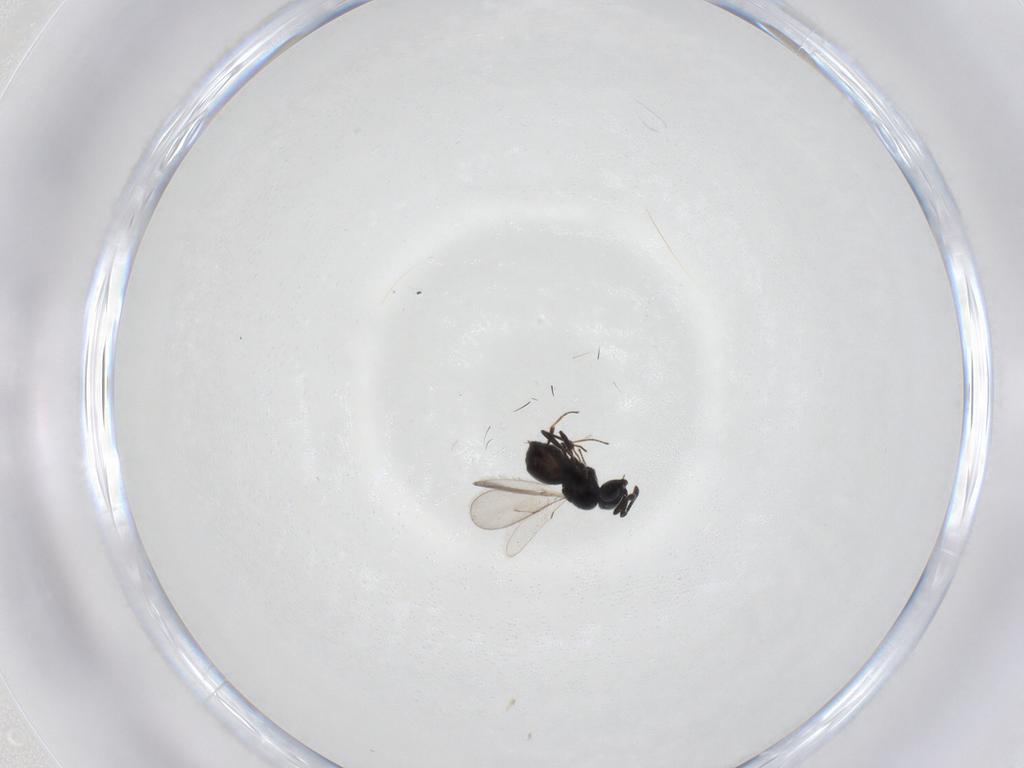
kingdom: Animalia
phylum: Arthropoda
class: Insecta
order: Hymenoptera
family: Scelionidae
